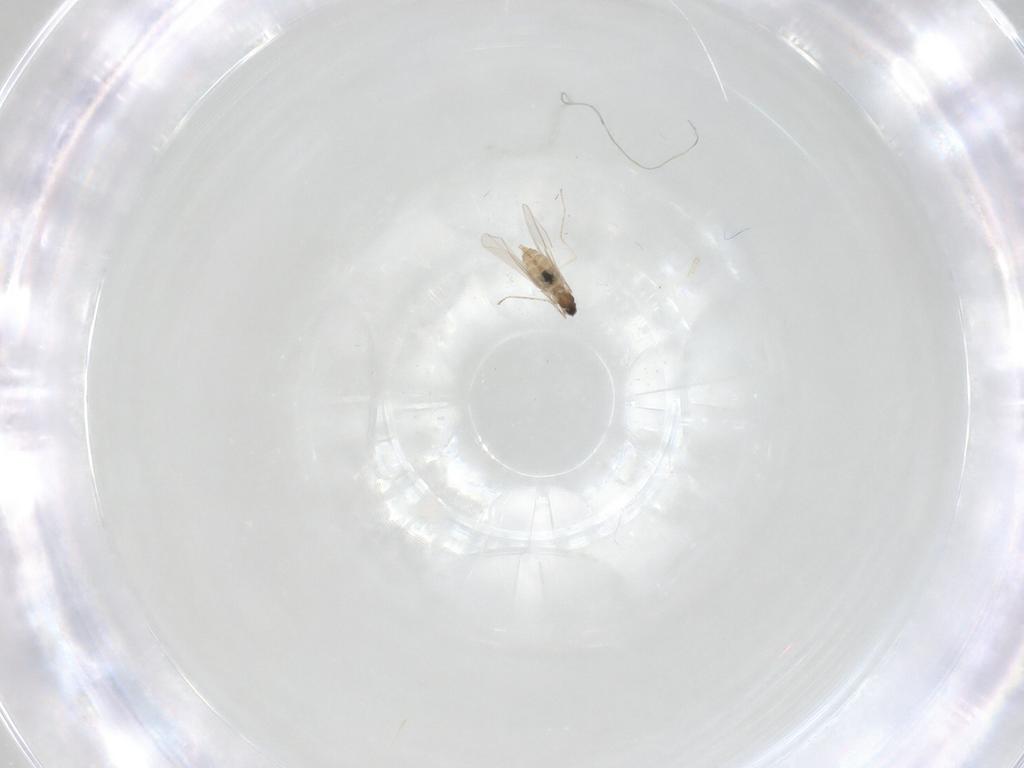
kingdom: Animalia
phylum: Arthropoda
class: Insecta
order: Diptera
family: Cecidomyiidae
